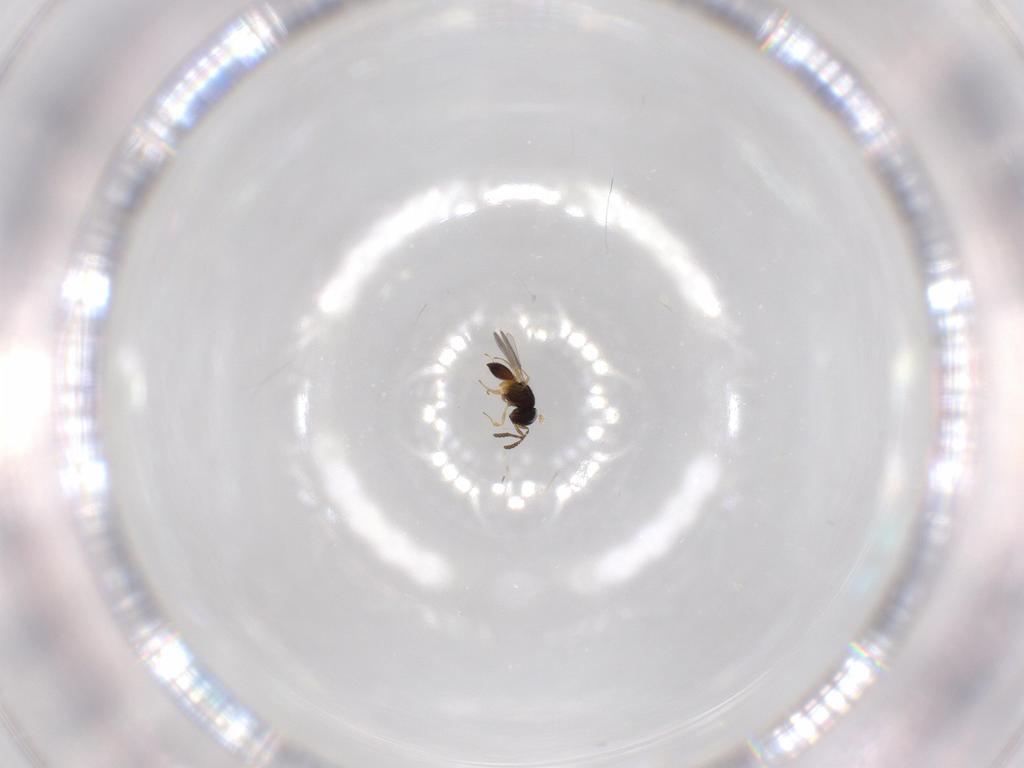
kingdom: Animalia
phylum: Arthropoda
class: Insecta
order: Hymenoptera
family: Scelionidae
